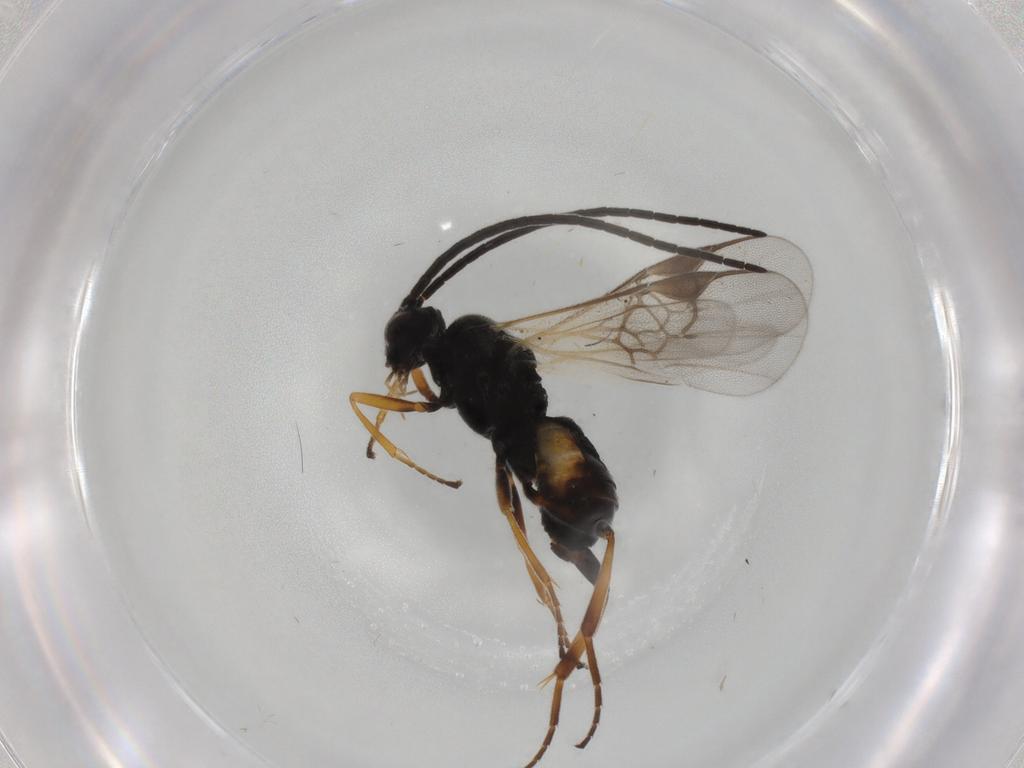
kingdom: Animalia
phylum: Arthropoda
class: Insecta
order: Hymenoptera
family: Braconidae
